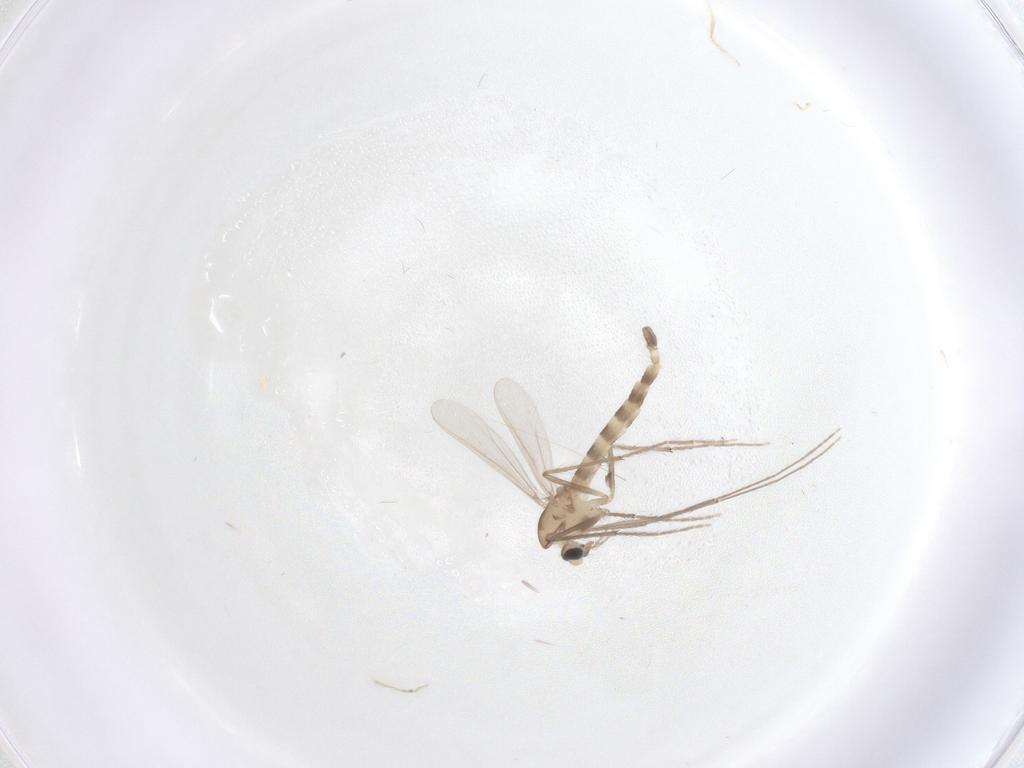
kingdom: Animalia
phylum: Arthropoda
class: Insecta
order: Diptera
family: Chironomidae
